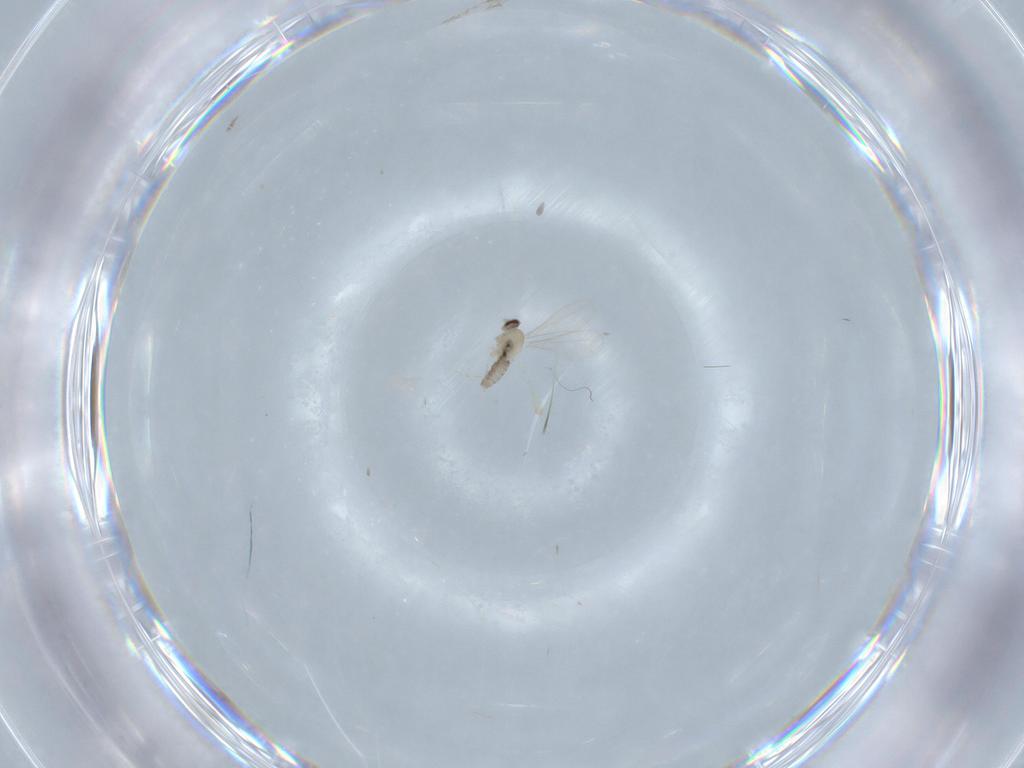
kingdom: Animalia
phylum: Arthropoda
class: Insecta
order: Diptera
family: Cecidomyiidae
